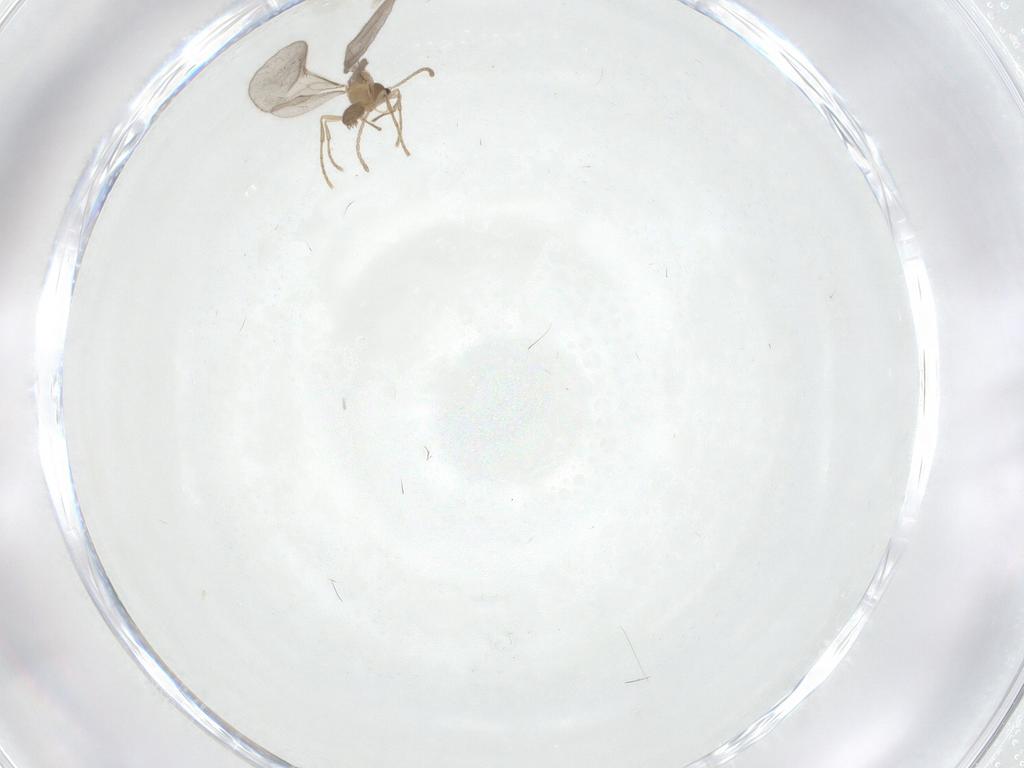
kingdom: Animalia
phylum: Arthropoda
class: Insecta
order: Hymenoptera
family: Formicidae
